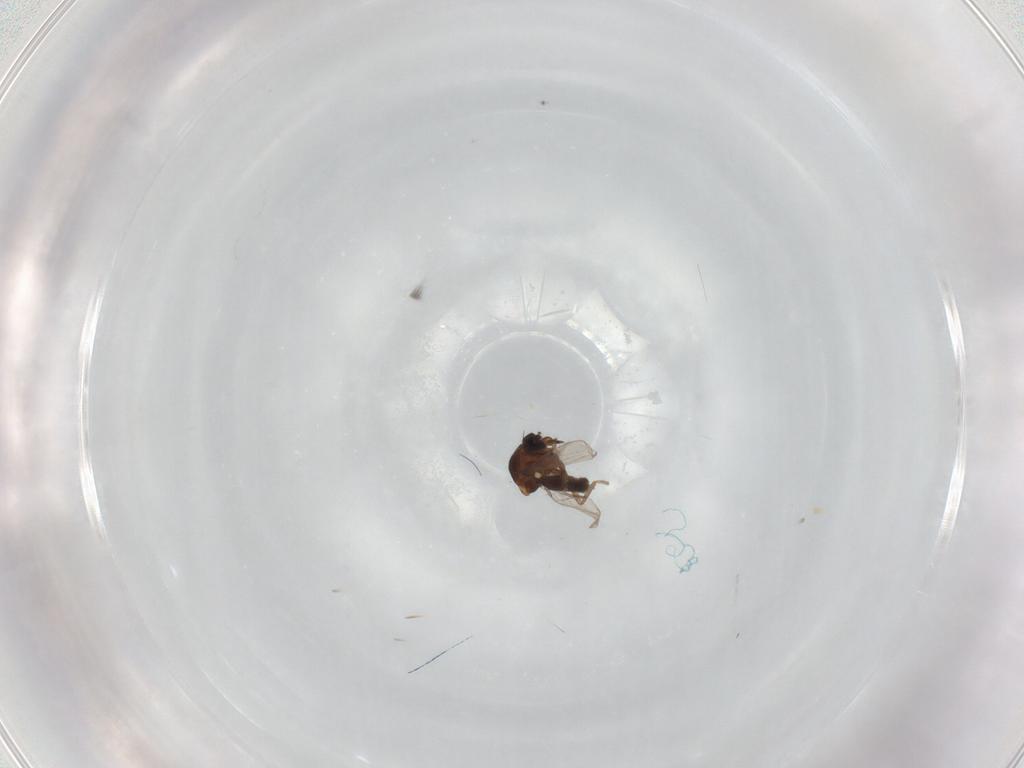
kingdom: Animalia
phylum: Arthropoda
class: Insecta
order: Diptera
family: Ceratopogonidae
